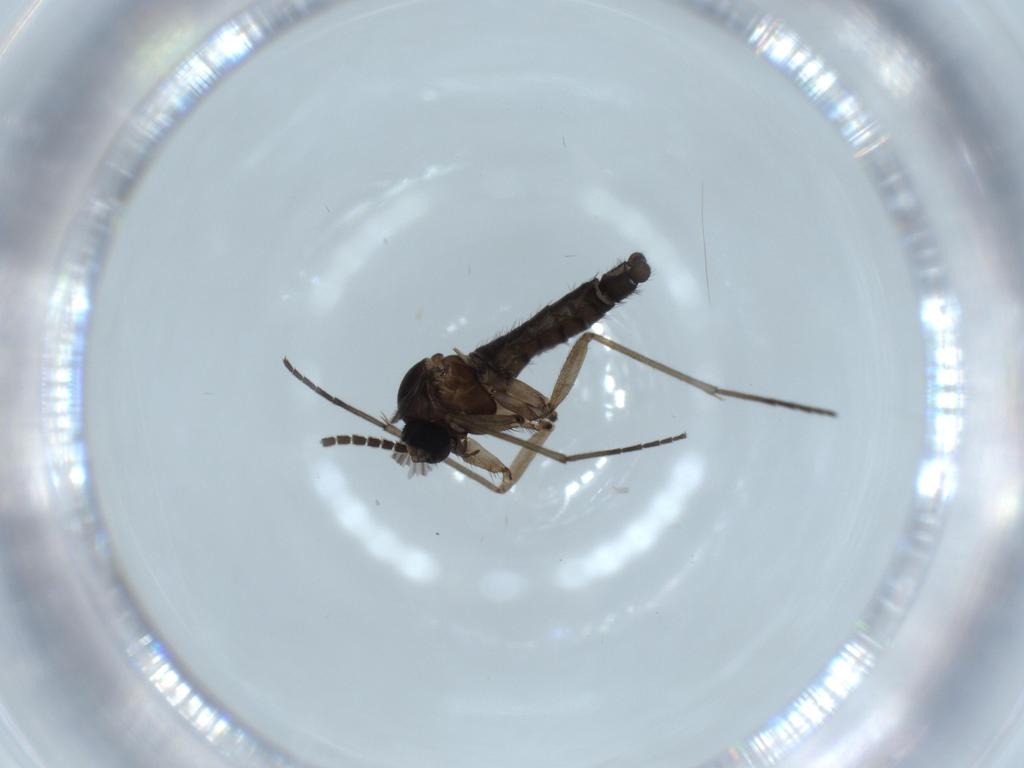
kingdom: Animalia
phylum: Arthropoda
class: Insecta
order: Diptera
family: Sciaridae
